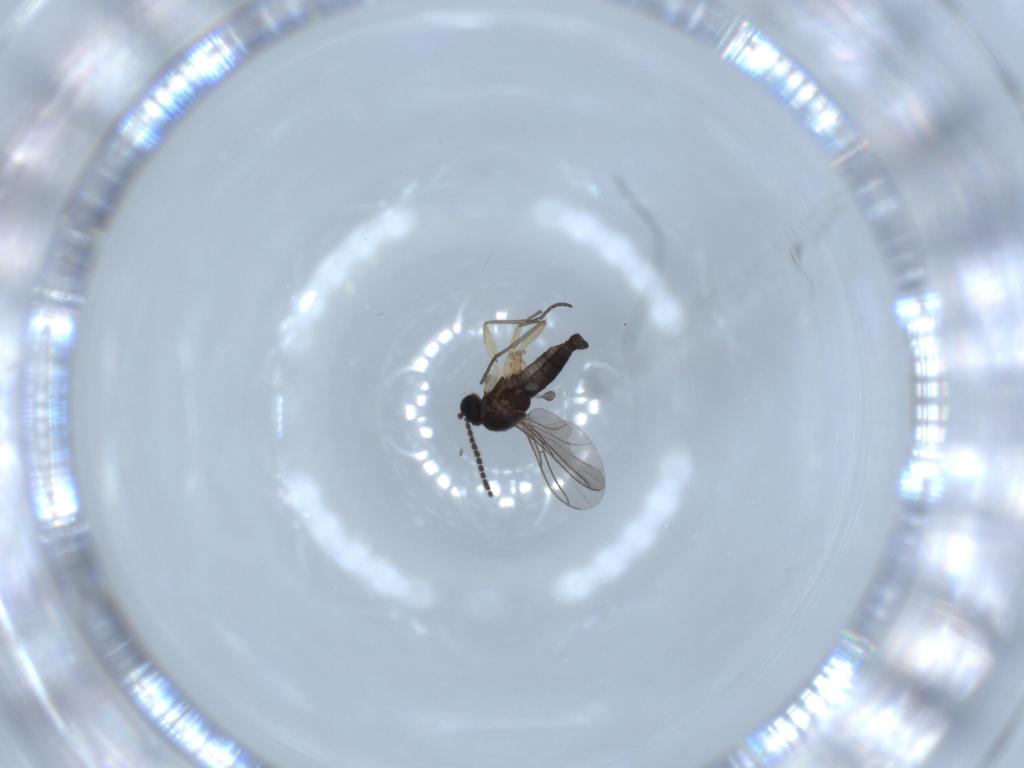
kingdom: Animalia
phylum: Arthropoda
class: Insecta
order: Diptera
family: Sciaridae
